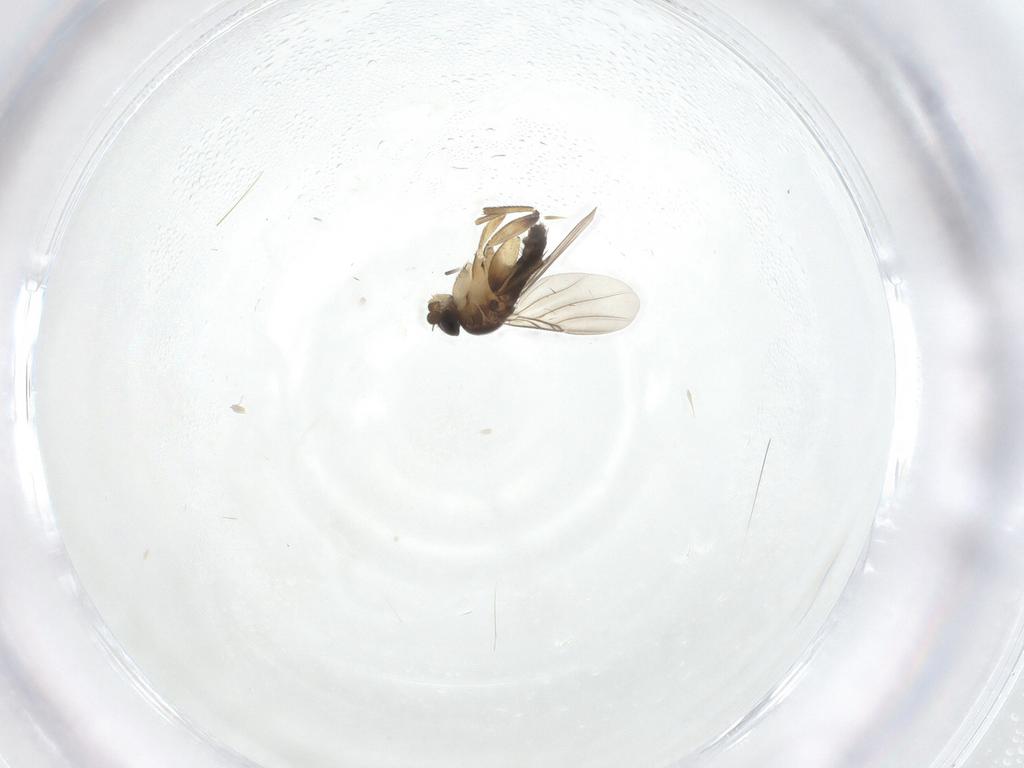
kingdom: Animalia
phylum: Arthropoda
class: Insecta
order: Diptera
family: Phoridae
